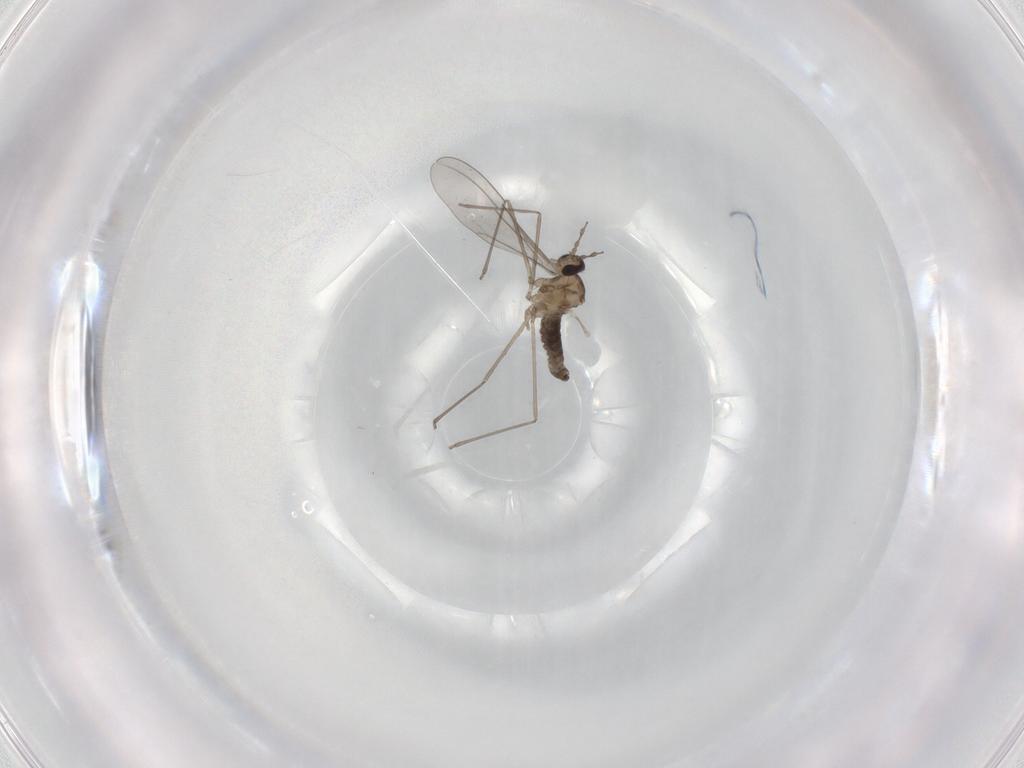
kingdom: Animalia
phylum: Arthropoda
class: Insecta
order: Diptera
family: Cecidomyiidae
